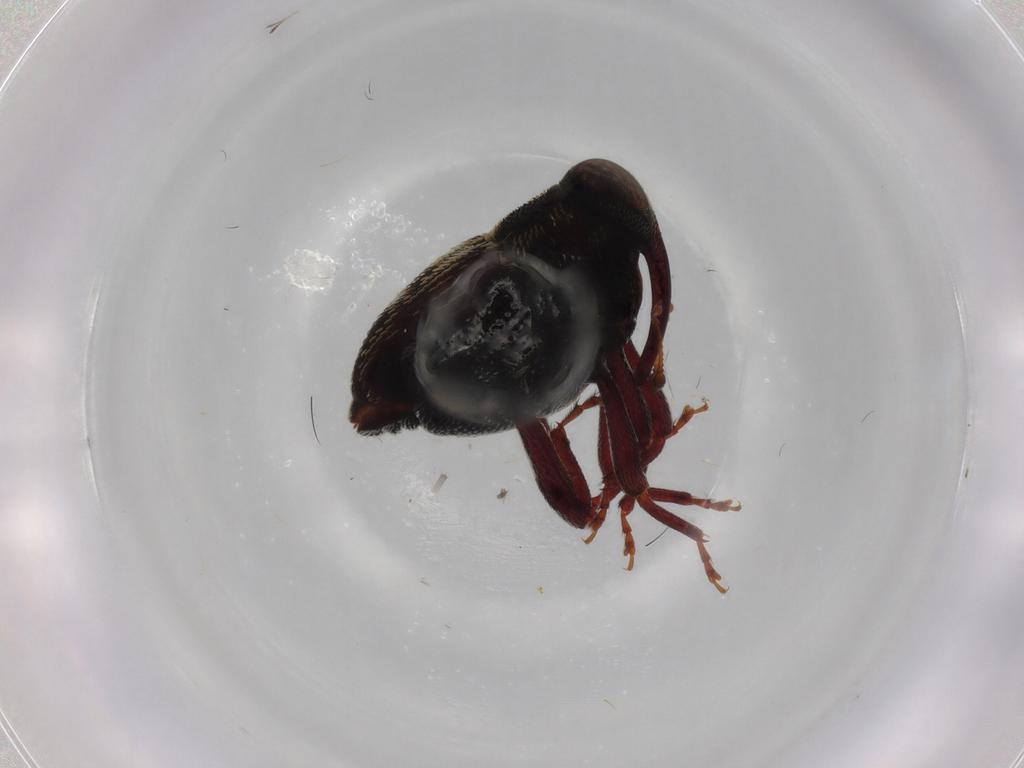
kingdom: Animalia
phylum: Arthropoda
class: Insecta
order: Coleoptera
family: Curculionidae
